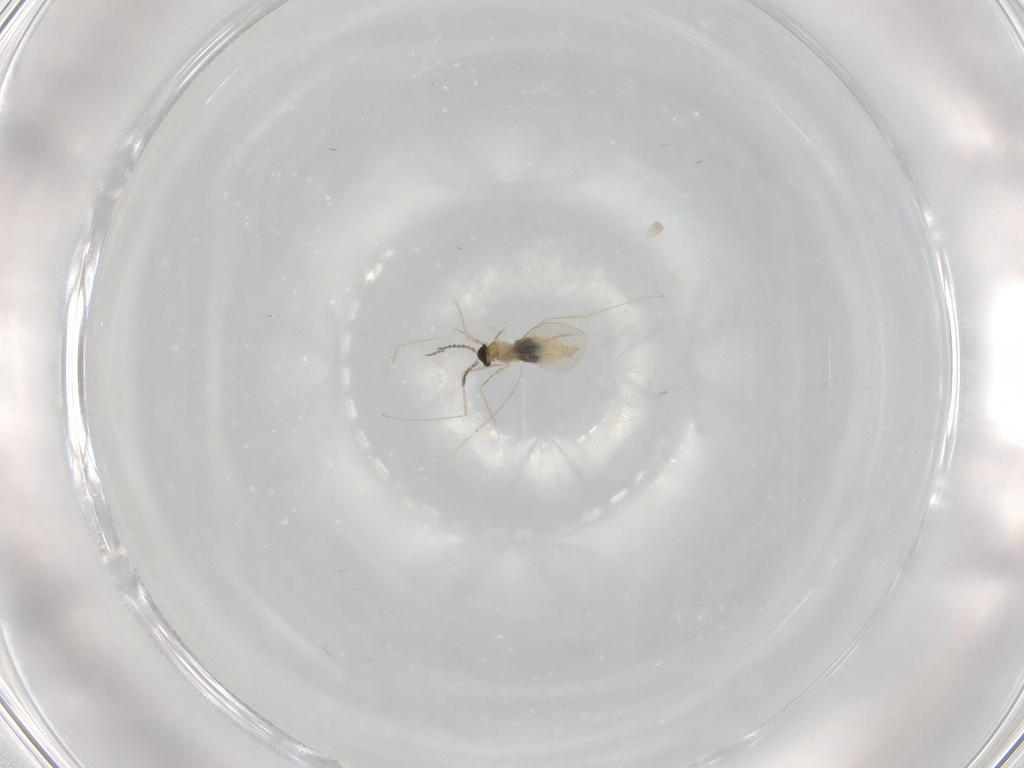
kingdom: Animalia
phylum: Arthropoda
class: Insecta
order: Diptera
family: Cecidomyiidae
